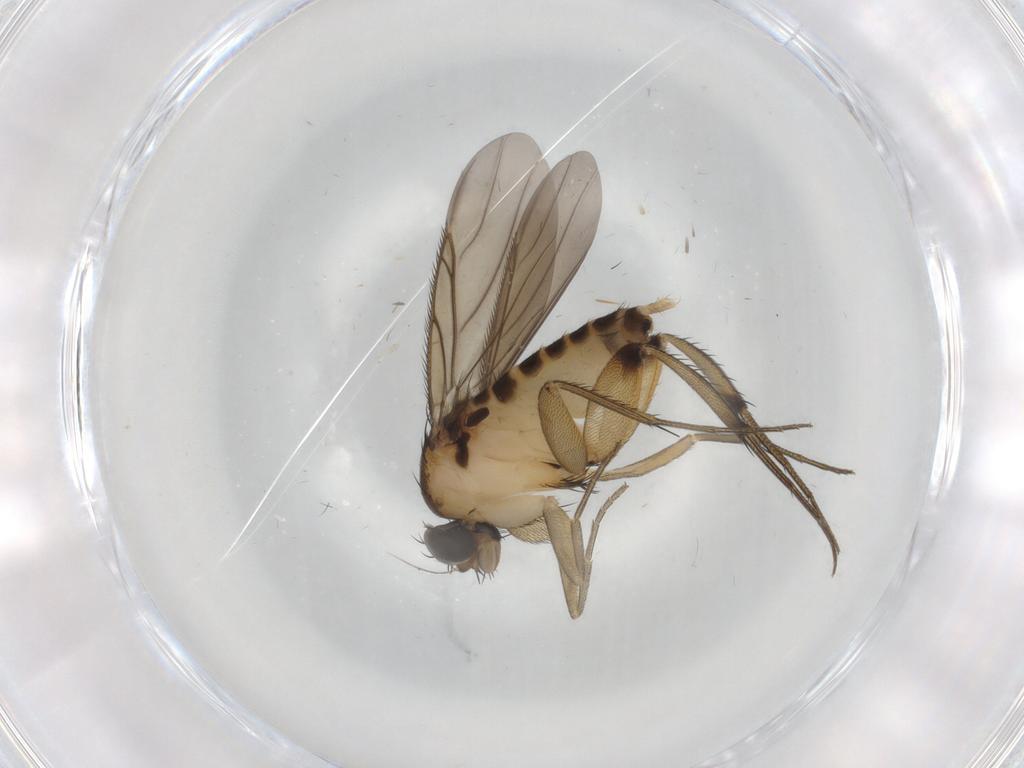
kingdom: Animalia
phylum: Arthropoda
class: Insecta
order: Diptera
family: Phoridae
